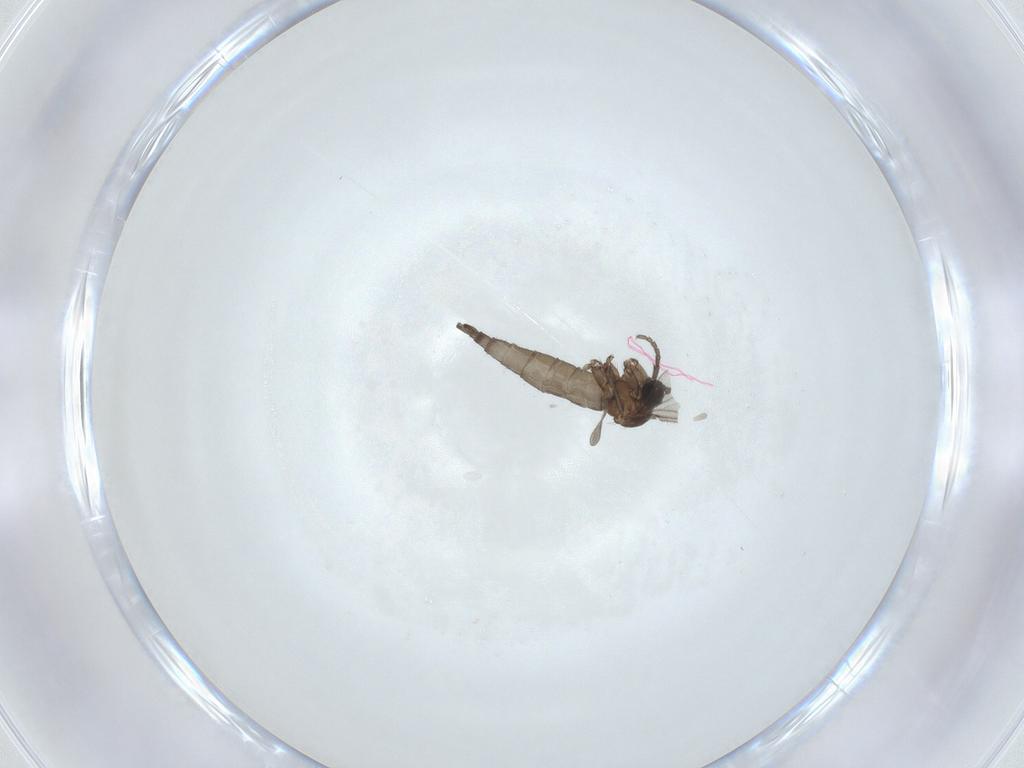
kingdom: Animalia
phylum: Arthropoda
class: Insecta
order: Diptera
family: Sciaridae
